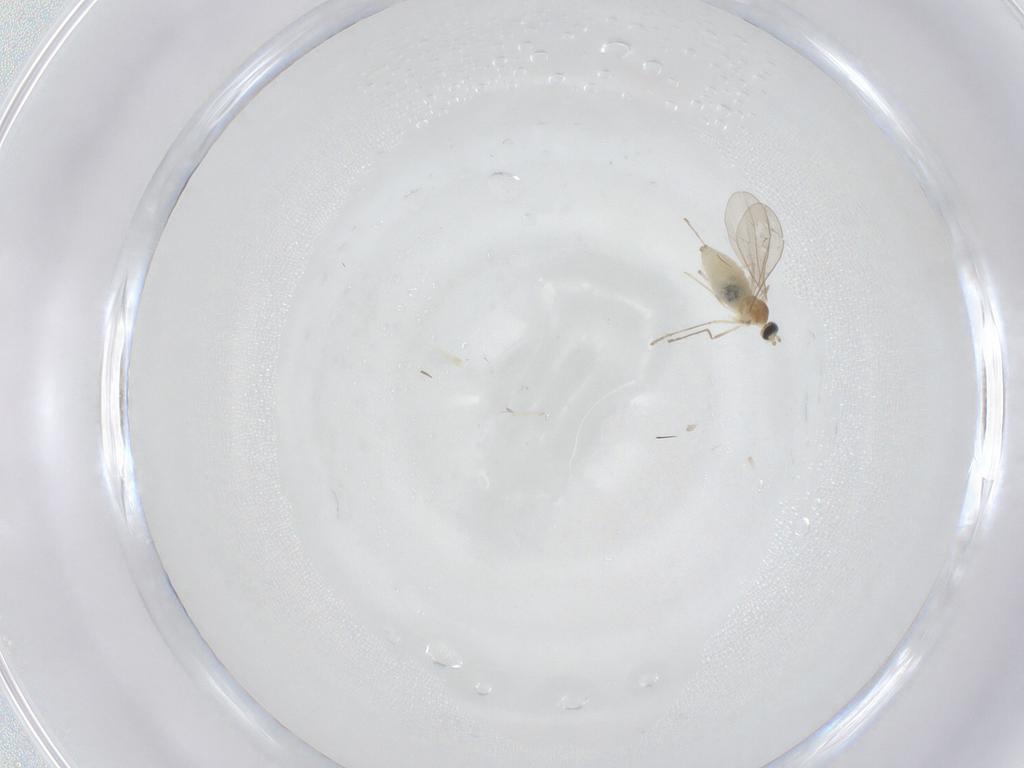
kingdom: Animalia
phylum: Arthropoda
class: Insecta
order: Diptera
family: Cecidomyiidae
